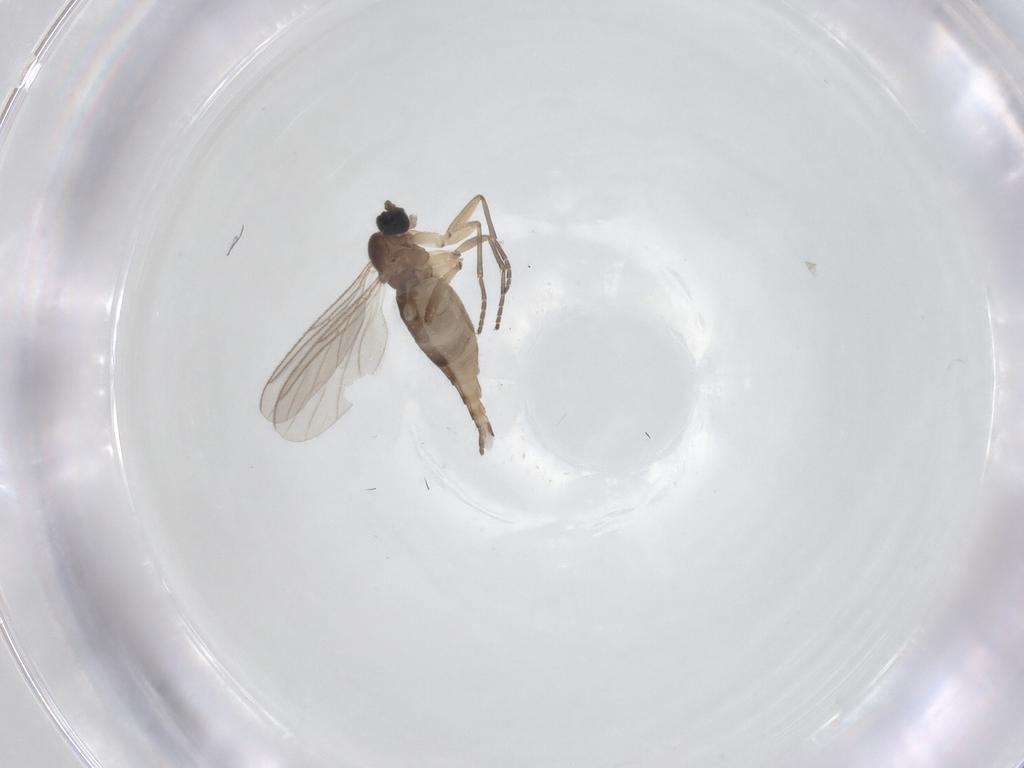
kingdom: Animalia
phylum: Arthropoda
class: Insecta
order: Diptera
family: Sciaridae
